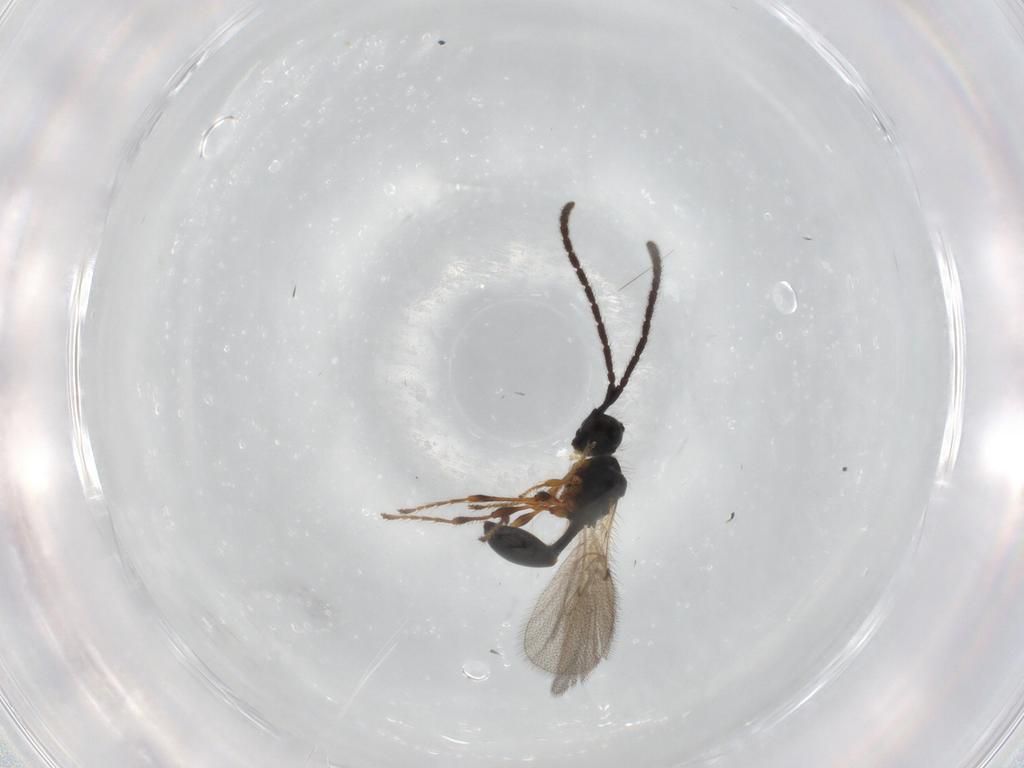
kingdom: Animalia
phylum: Arthropoda
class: Insecta
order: Hymenoptera
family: Diapriidae
